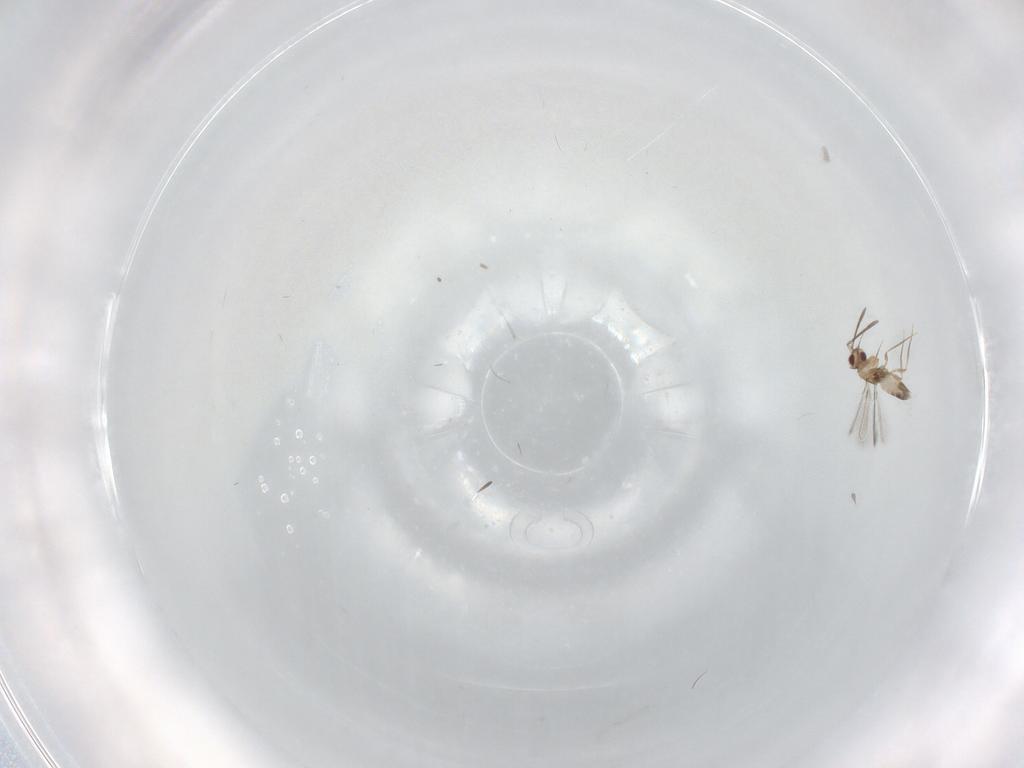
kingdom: Animalia
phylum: Arthropoda
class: Insecta
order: Hymenoptera
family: Mymaridae
